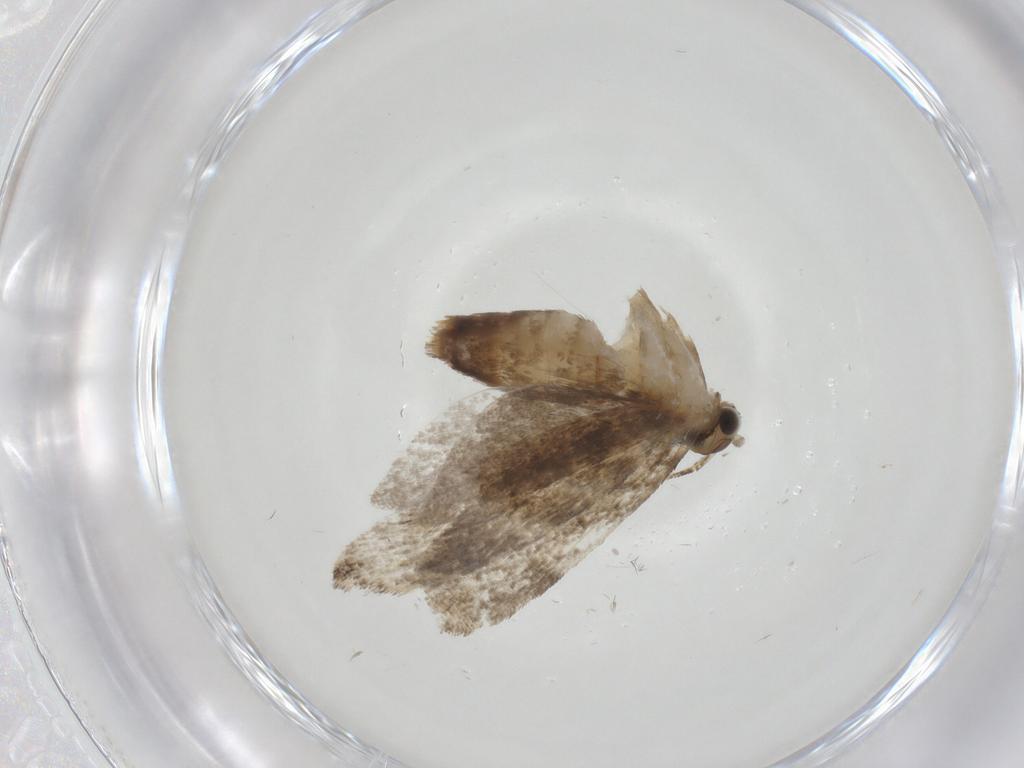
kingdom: Animalia
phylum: Arthropoda
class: Insecta
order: Lepidoptera
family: Tineidae
